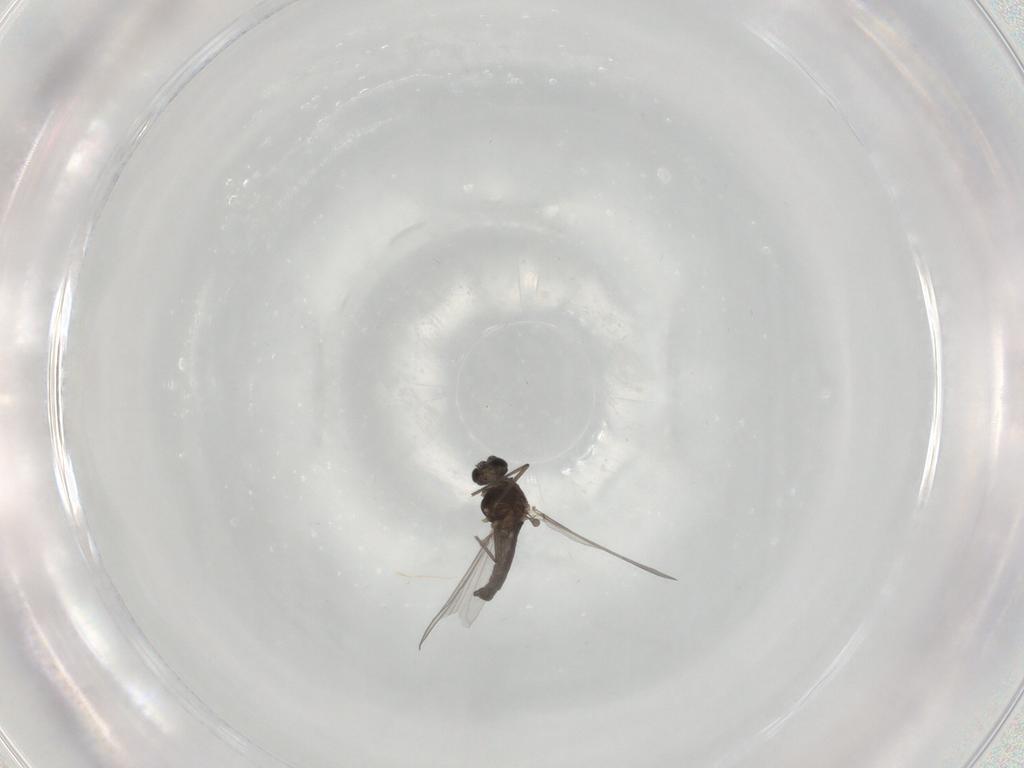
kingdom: Animalia
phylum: Arthropoda
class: Insecta
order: Diptera
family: Chironomidae
